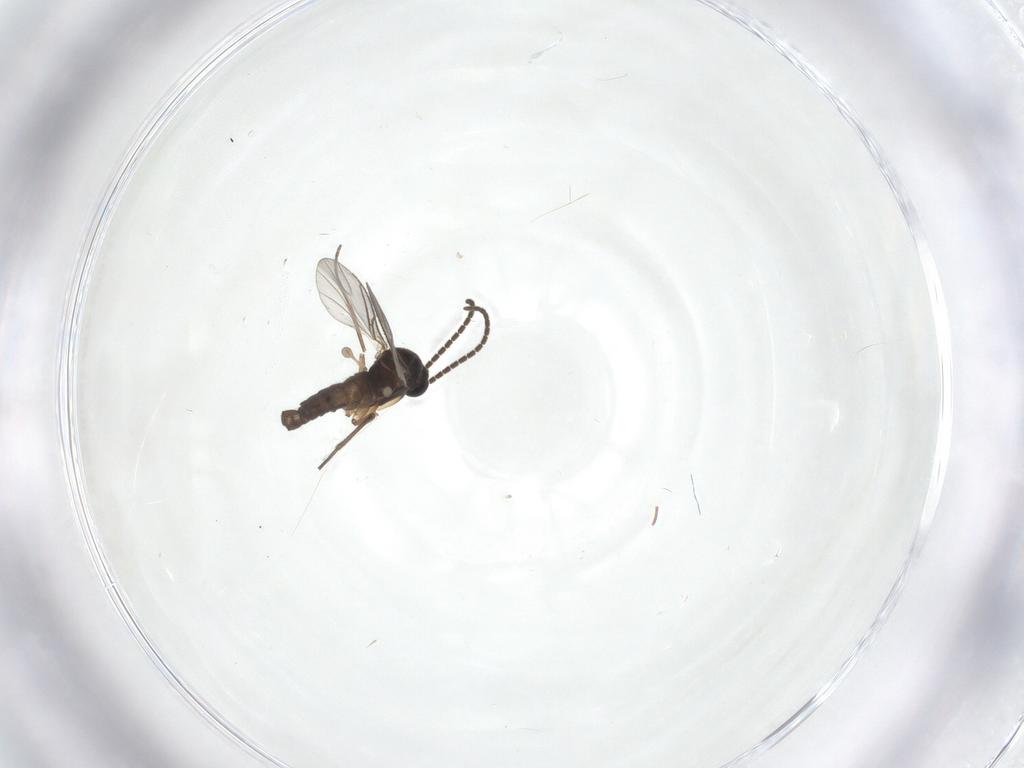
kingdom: Animalia
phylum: Arthropoda
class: Insecta
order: Diptera
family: Sciaridae
